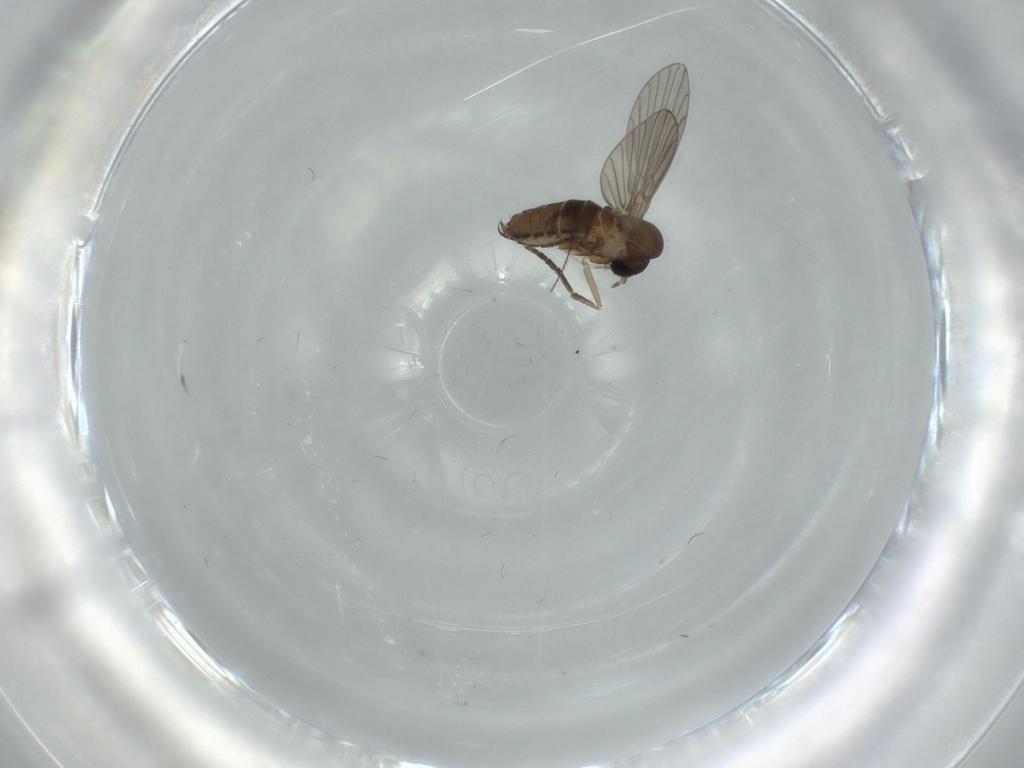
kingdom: Animalia
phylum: Arthropoda
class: Insecta
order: Diptera
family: Psychodidae
